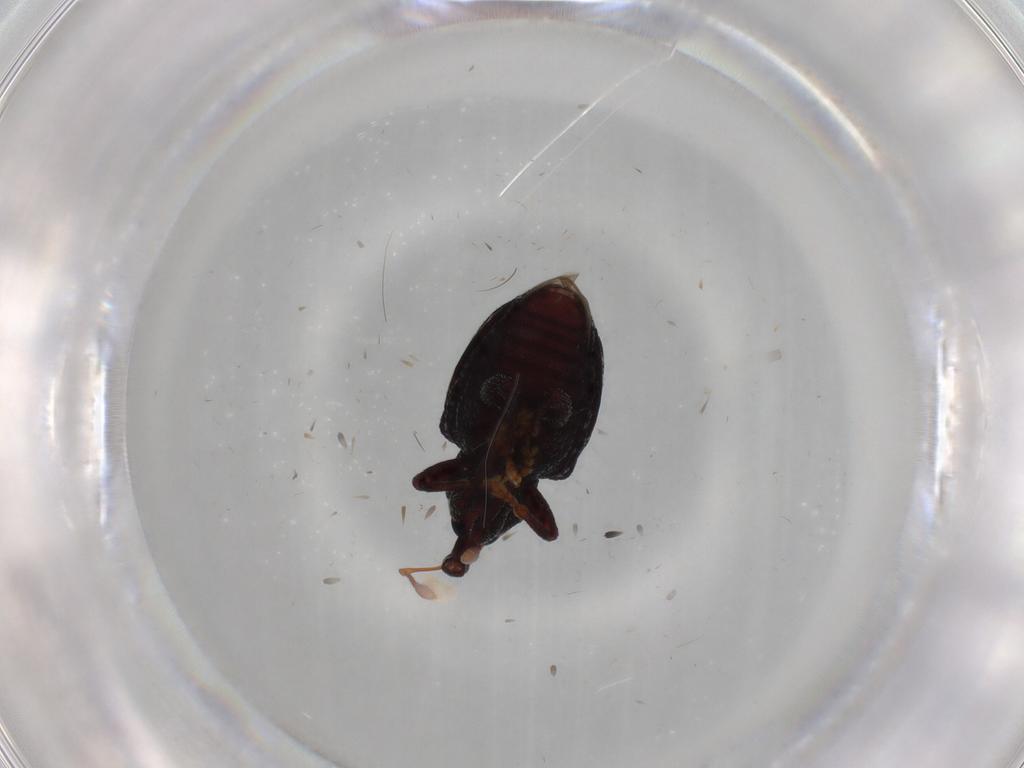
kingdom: Animalia
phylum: Arthropoda
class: Insecta
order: Coleoptera
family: Curculionidae
